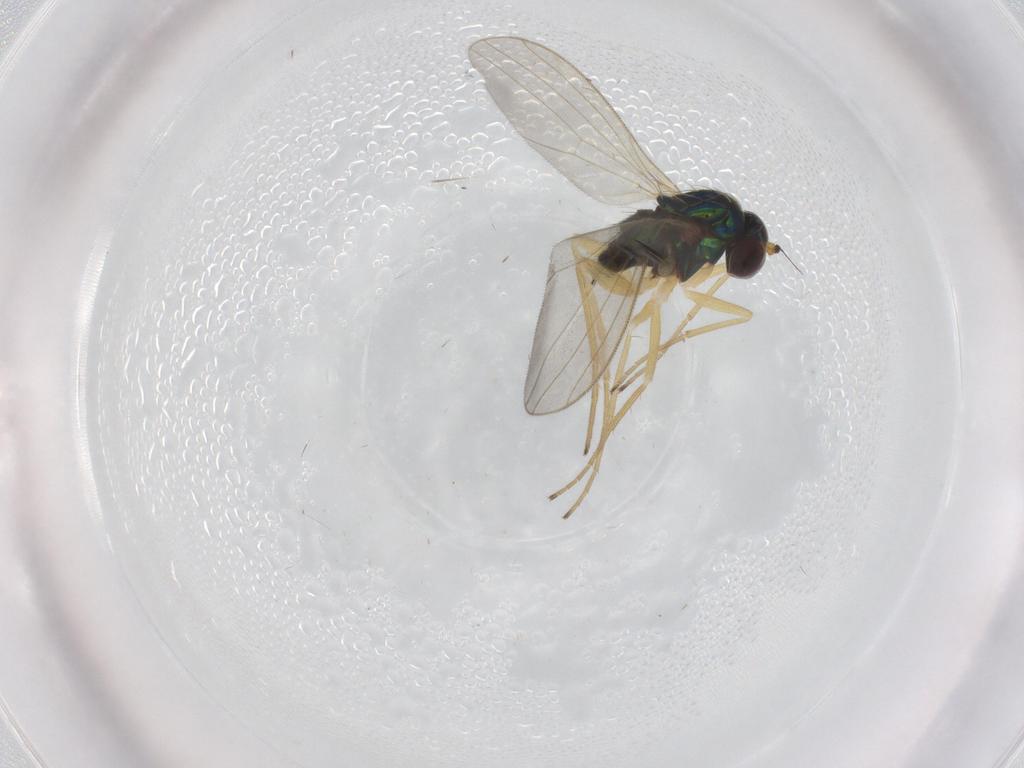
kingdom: Animalia
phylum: Arthropoda
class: Insecta
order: Diptera
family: Dolichopodidae
